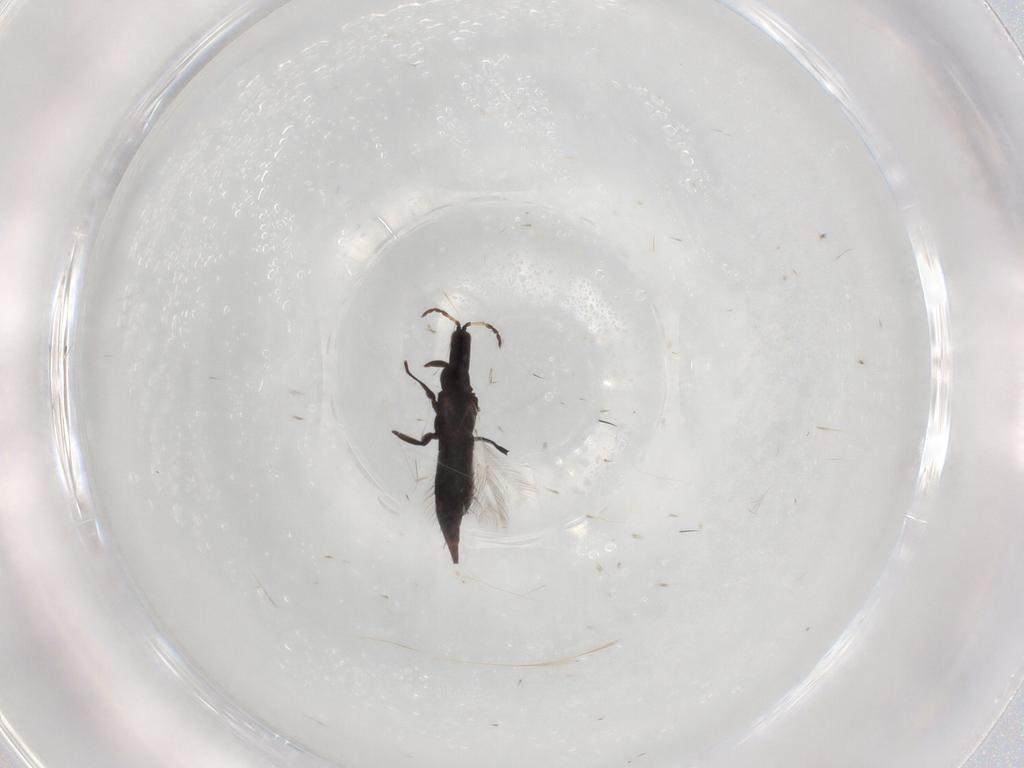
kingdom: Animalia
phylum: Arthropoda
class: Insecta
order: Thysanoptera
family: Phlaeothripidae
